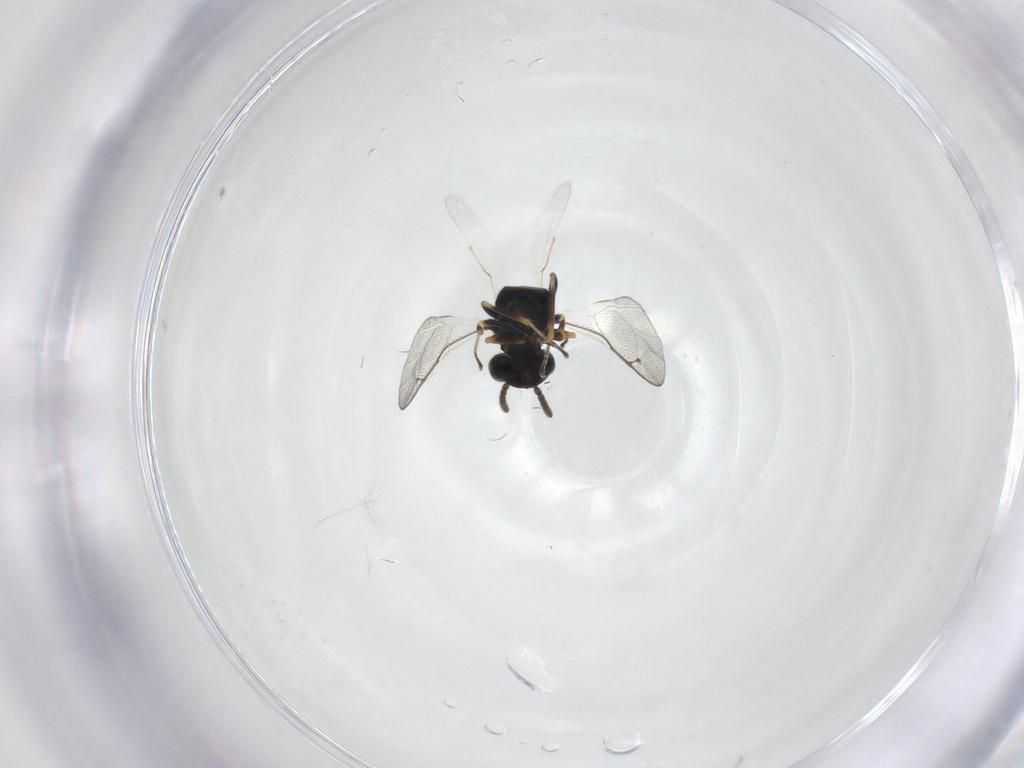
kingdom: Animalia
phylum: Arthropoda
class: Insecta
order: Hymenoptera
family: Pteromalidae
